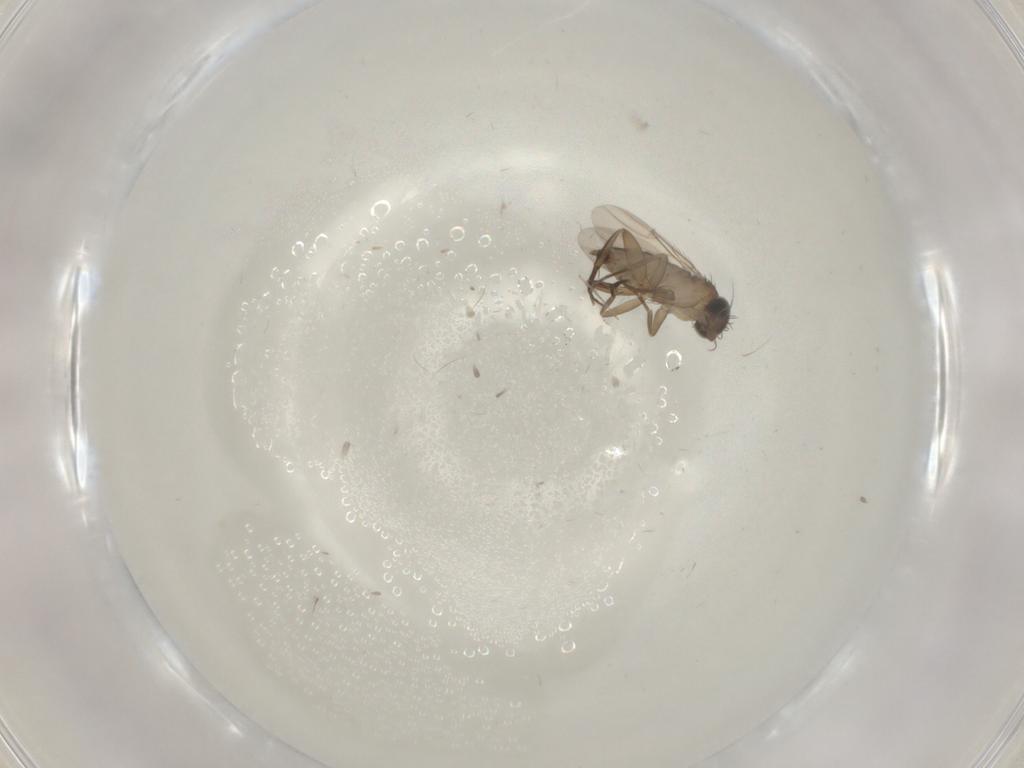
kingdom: Animalia
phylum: Arthropoda
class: Insecta
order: Diptera
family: Phoridae
